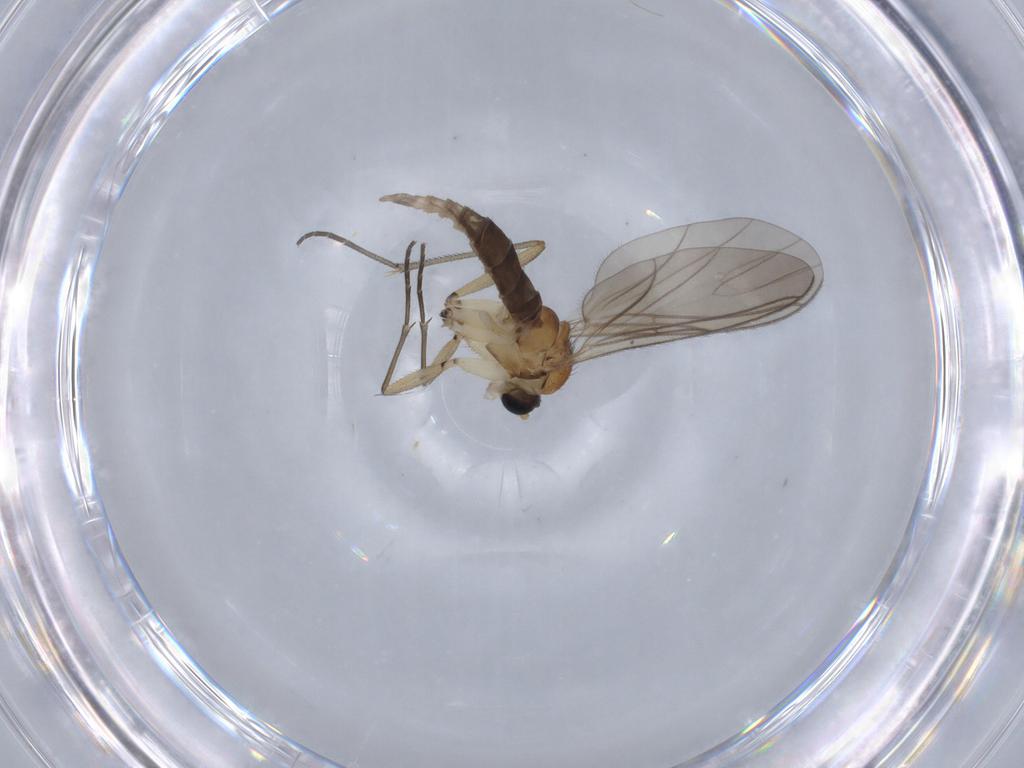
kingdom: Animalia
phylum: Arthropoda
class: Insecta
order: Diptera
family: Sciaridae
